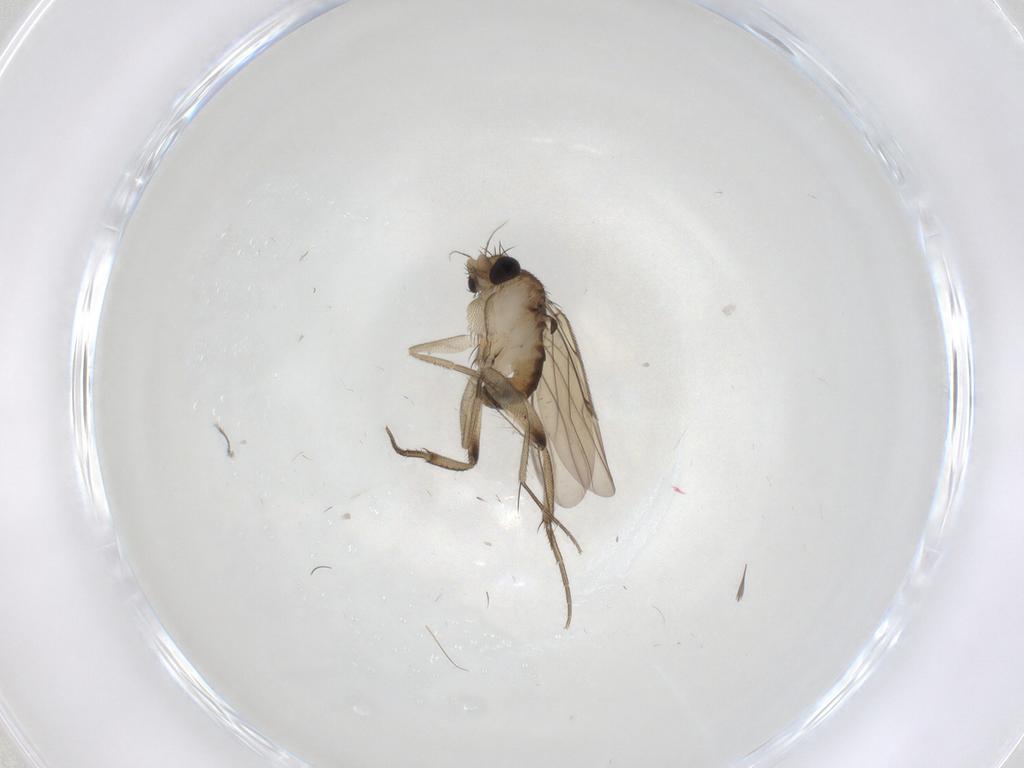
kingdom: Animalia
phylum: Arthropoda
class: Insecta
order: Diptera
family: Phoridae
